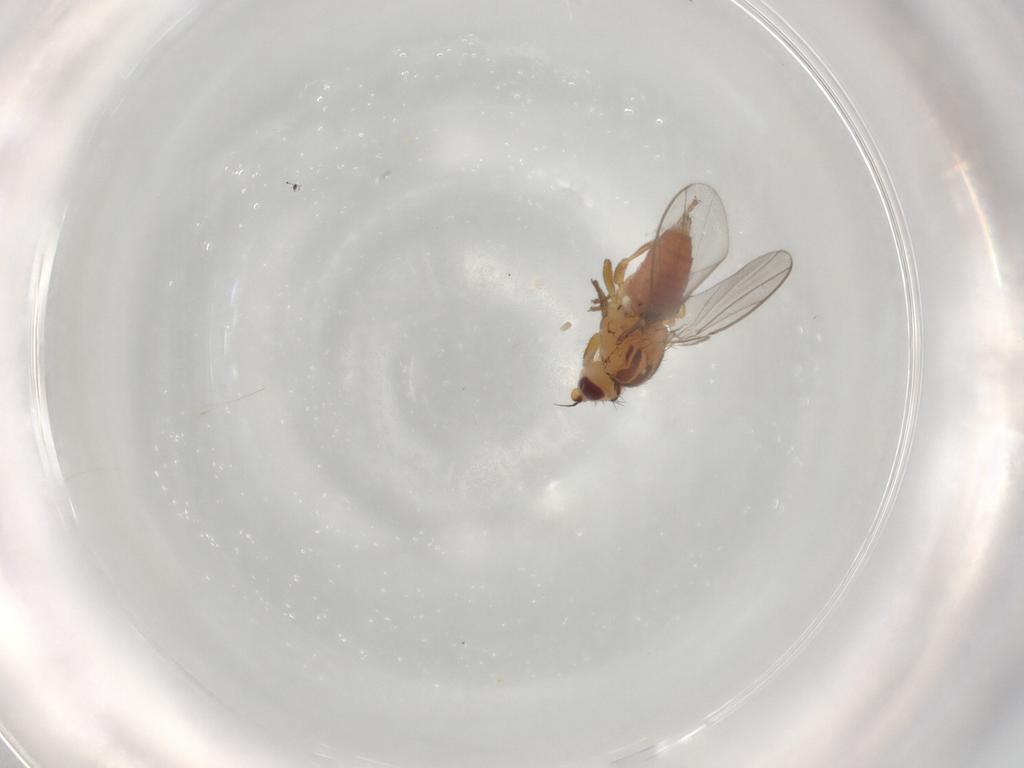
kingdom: Animalia
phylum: Arthropoda
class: Insecta
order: Diptera
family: Chloropidae
